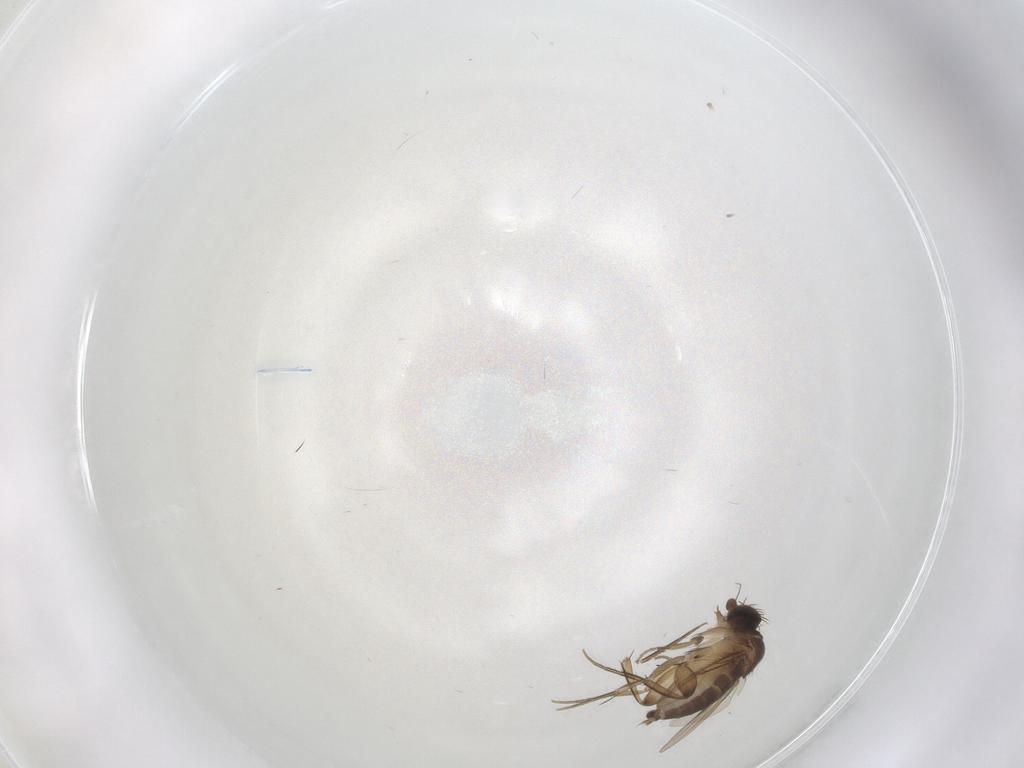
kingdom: Animalia
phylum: Arthropoda
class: Insecta
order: Diptera
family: Phoridae
